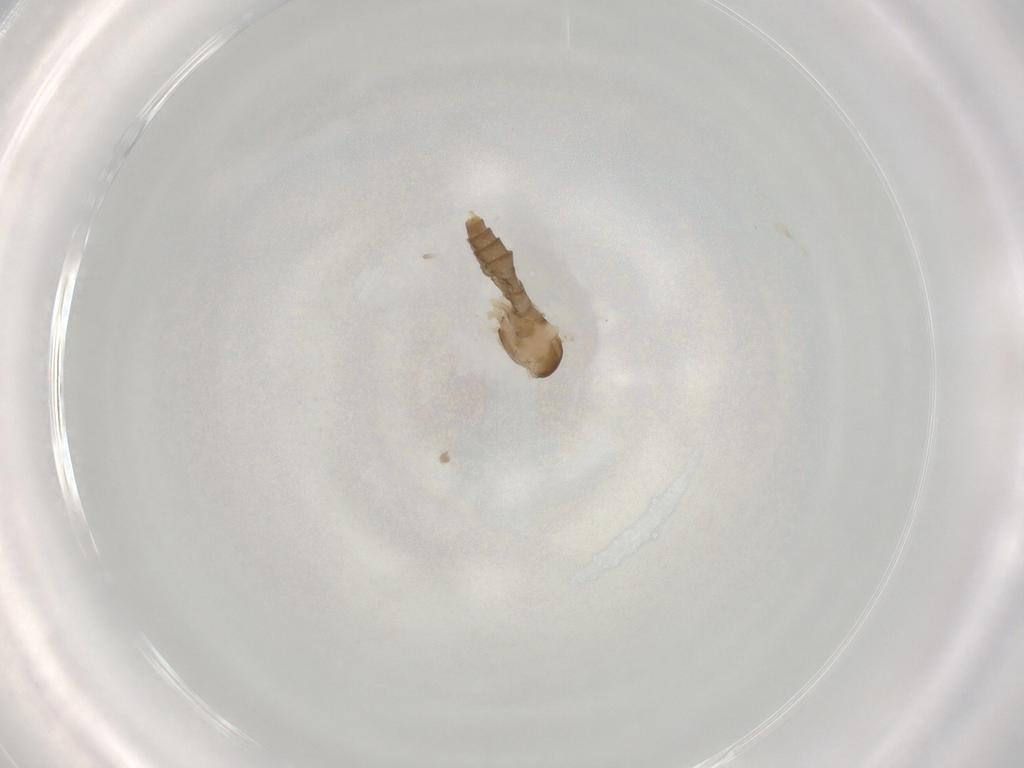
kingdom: Animalia
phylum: Arthropoda
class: Insecta
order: Diptera
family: Cecidomyiidae
